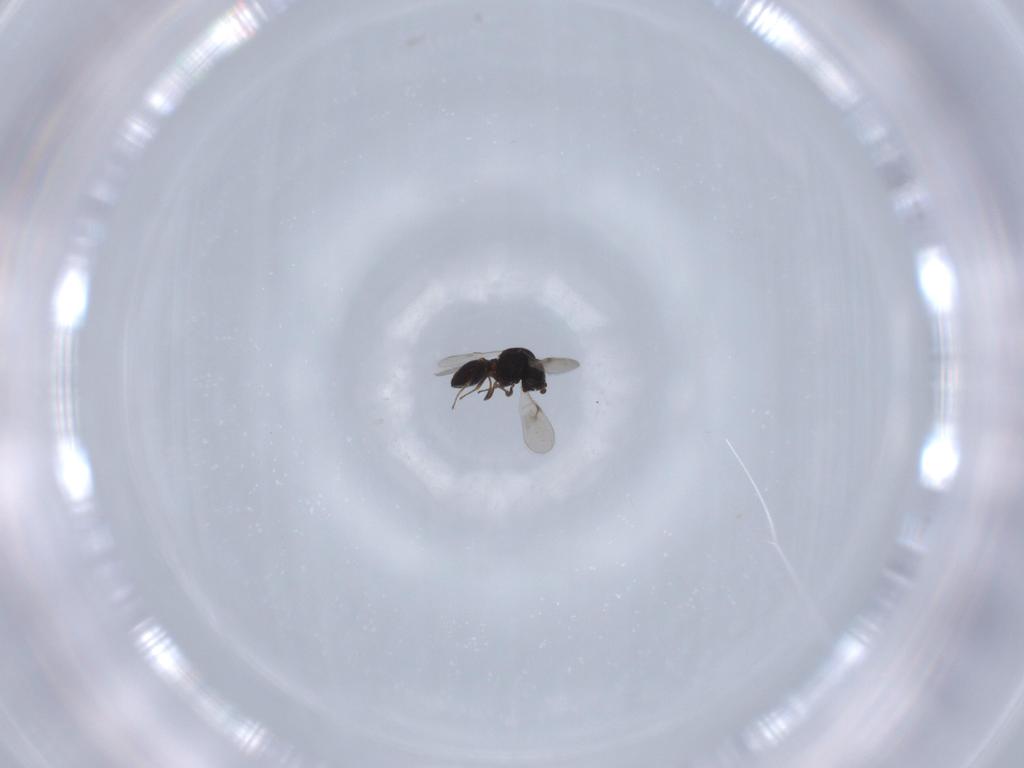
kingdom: Animalia
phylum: Arthropoda
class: Insecta
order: Hymenoptera
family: Scelionidae
